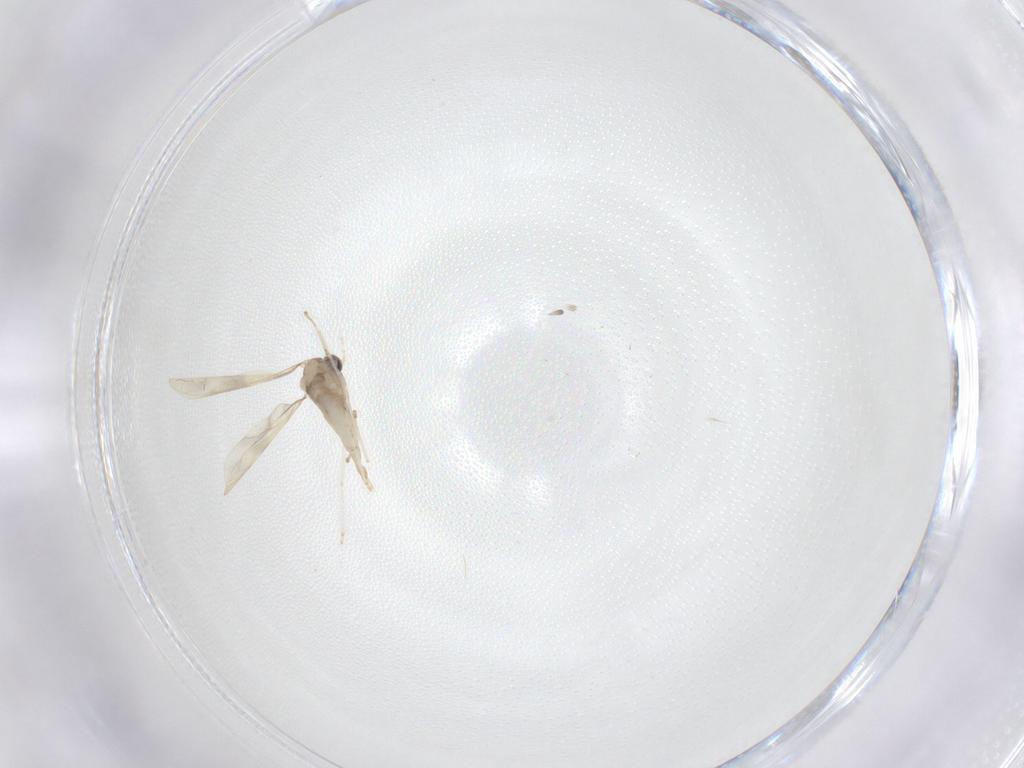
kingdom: Animalia
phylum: Arthropoda
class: Insecta
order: Diptera
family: Cecidomyiidae
